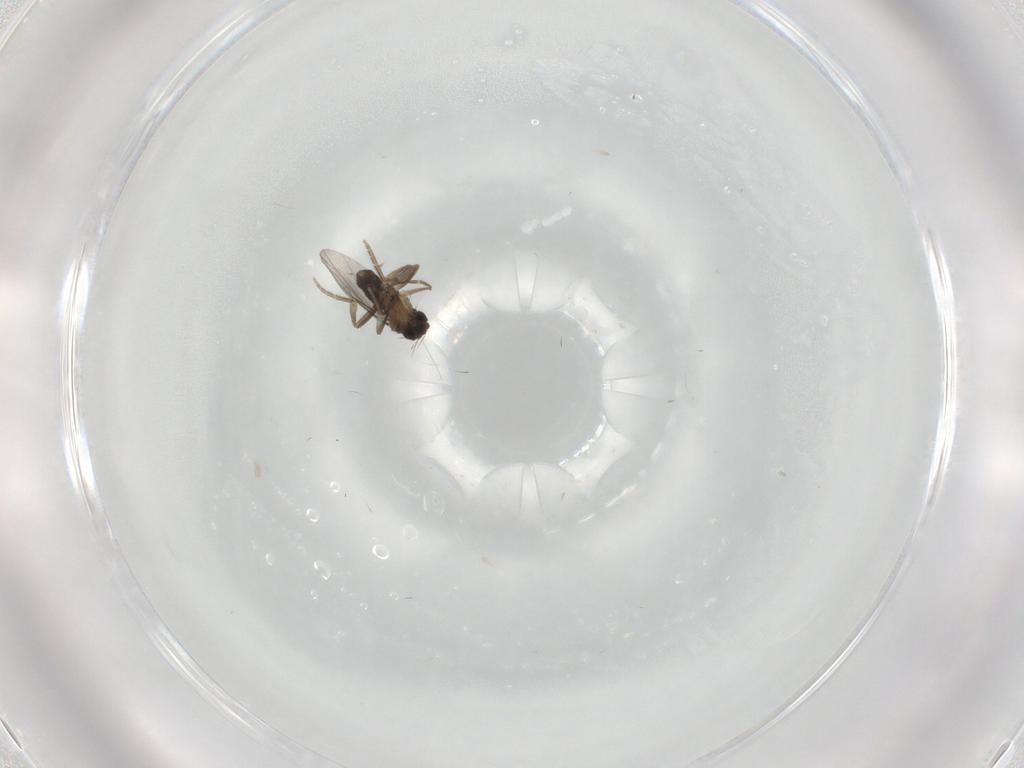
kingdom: Animalia
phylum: Arthropoda
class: Insecta
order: Diptera
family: Dolichopodidae
